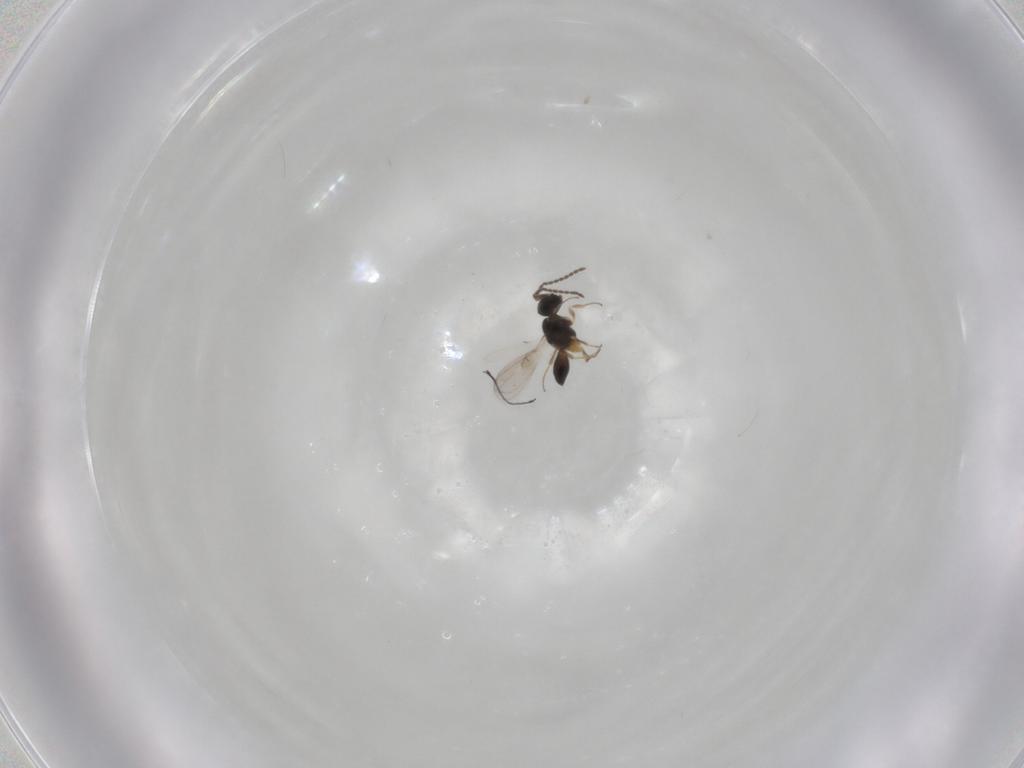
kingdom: Animalia
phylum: Arthropoda
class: Insecta
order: Hymenoptera
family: Scelionidae
